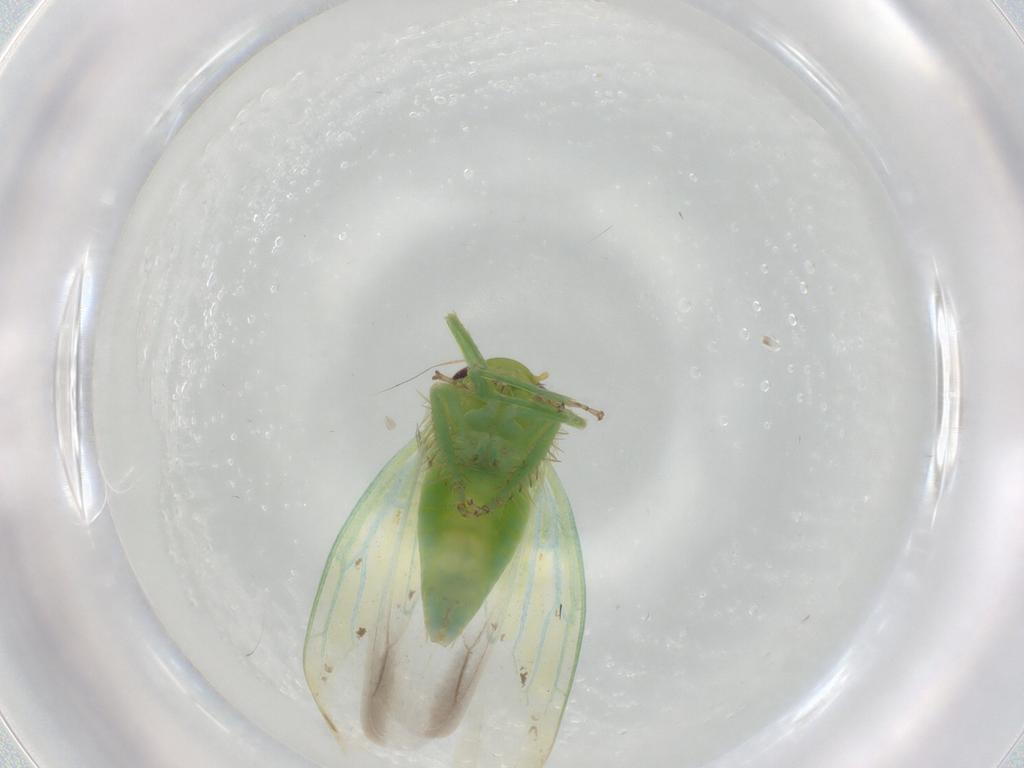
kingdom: Animalia
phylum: Arthropoda
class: Insecta
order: Hemiptera
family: Cicadellidae
